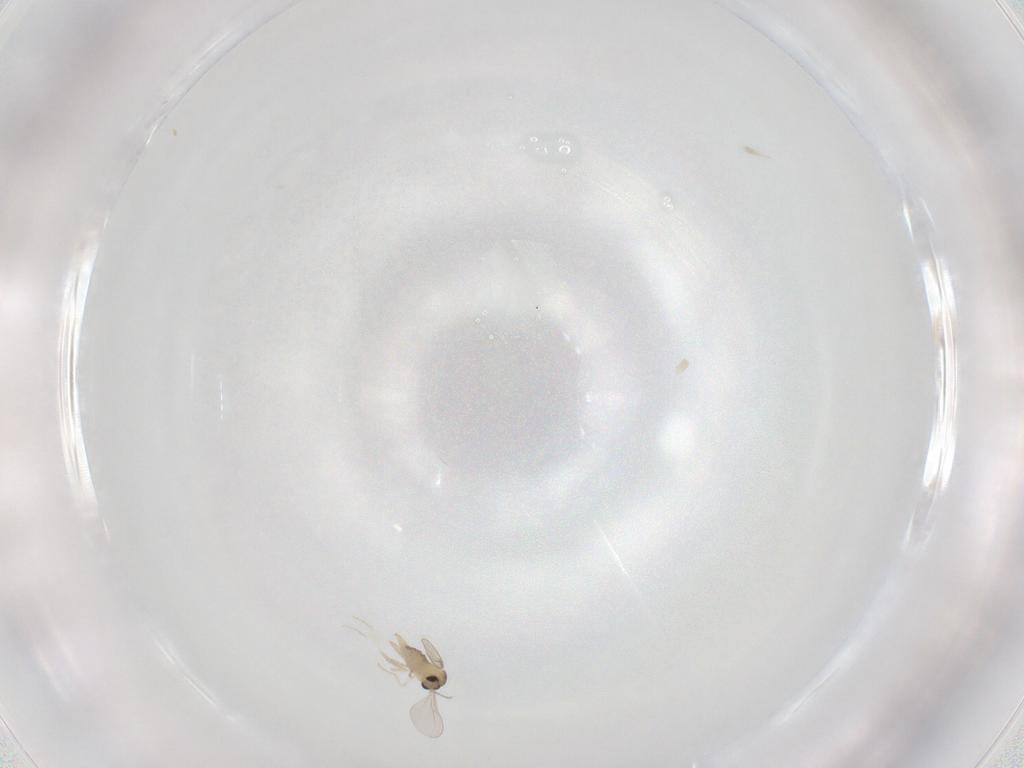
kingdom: Animalia
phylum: Arthropoda
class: Insecta
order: Diptera
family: Cecidomyiidae
